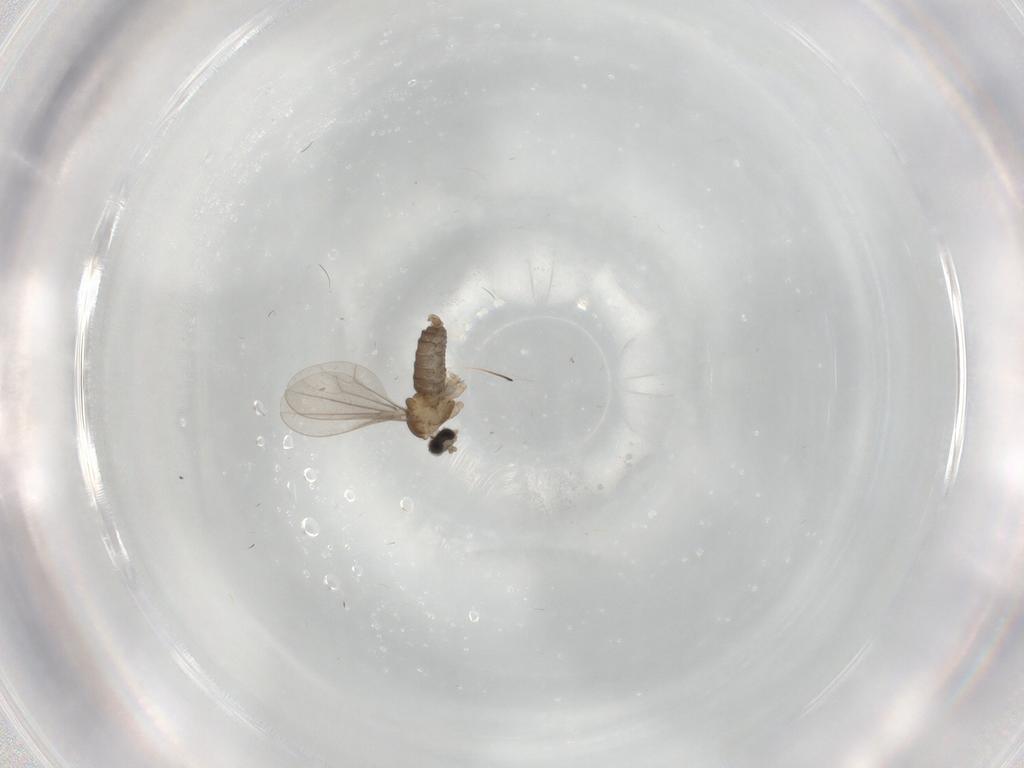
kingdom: Animalia
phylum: Arthropoda
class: Insecta
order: Diptera
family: Cecidomyiidae
